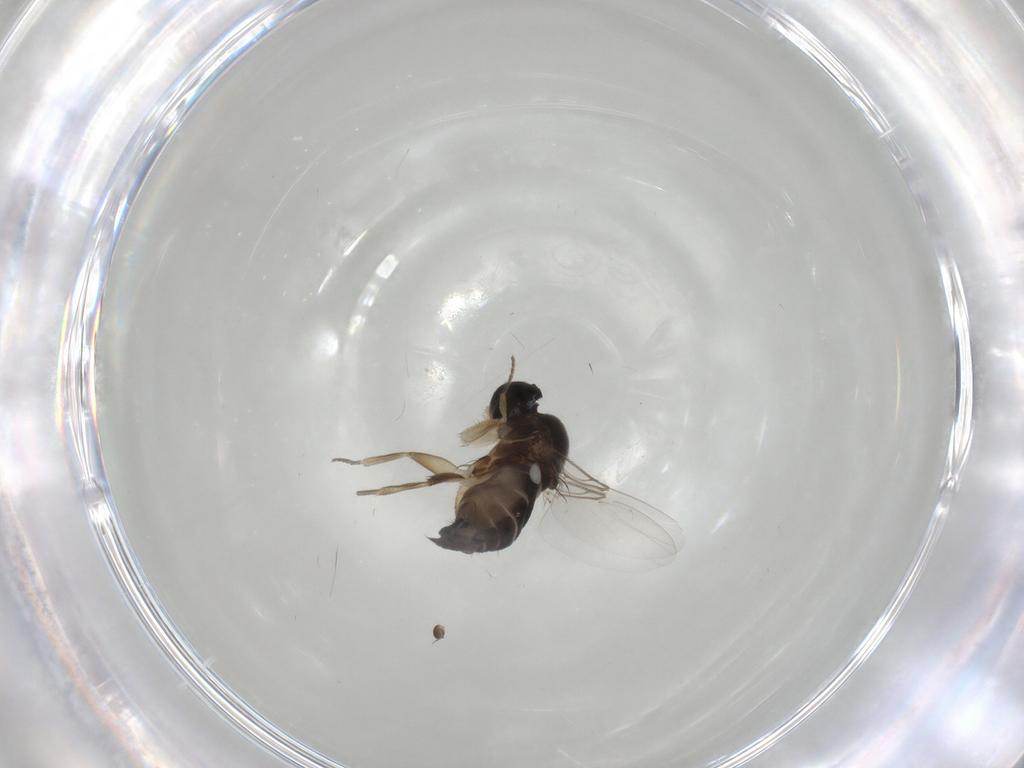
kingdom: Animalia
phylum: Arthropoda
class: Insecta
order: Diptera
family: Phoridae
